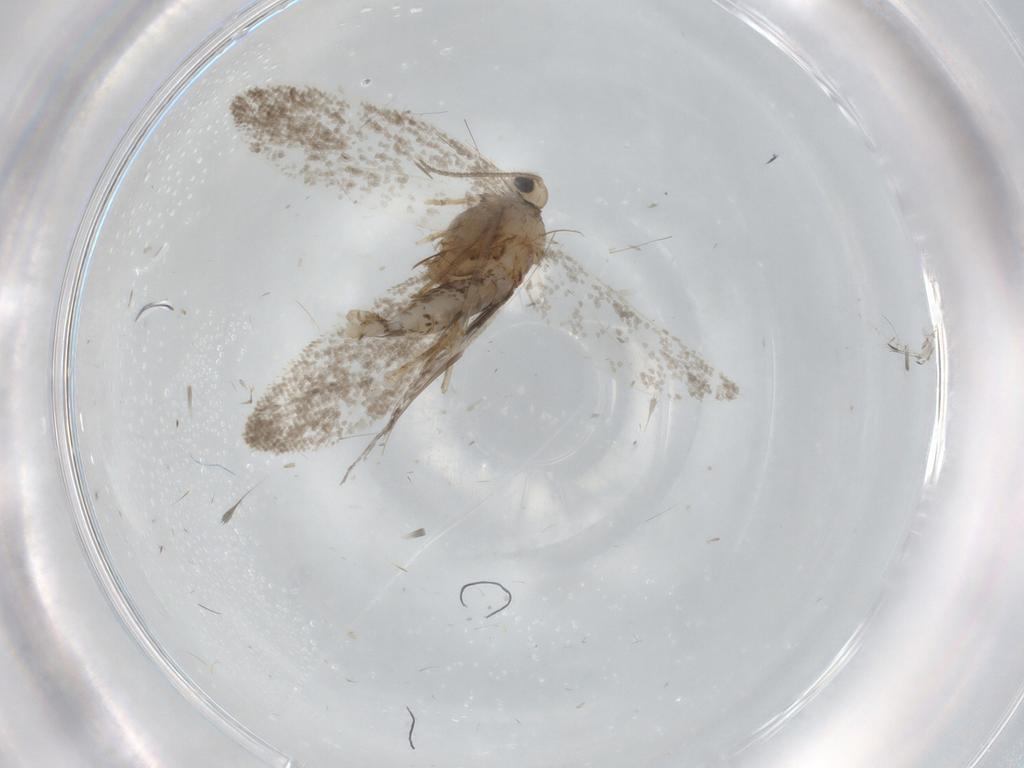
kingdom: Animalia
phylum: Arthropoda
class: Insecta
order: Lepidoptera
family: Gracillariidae
